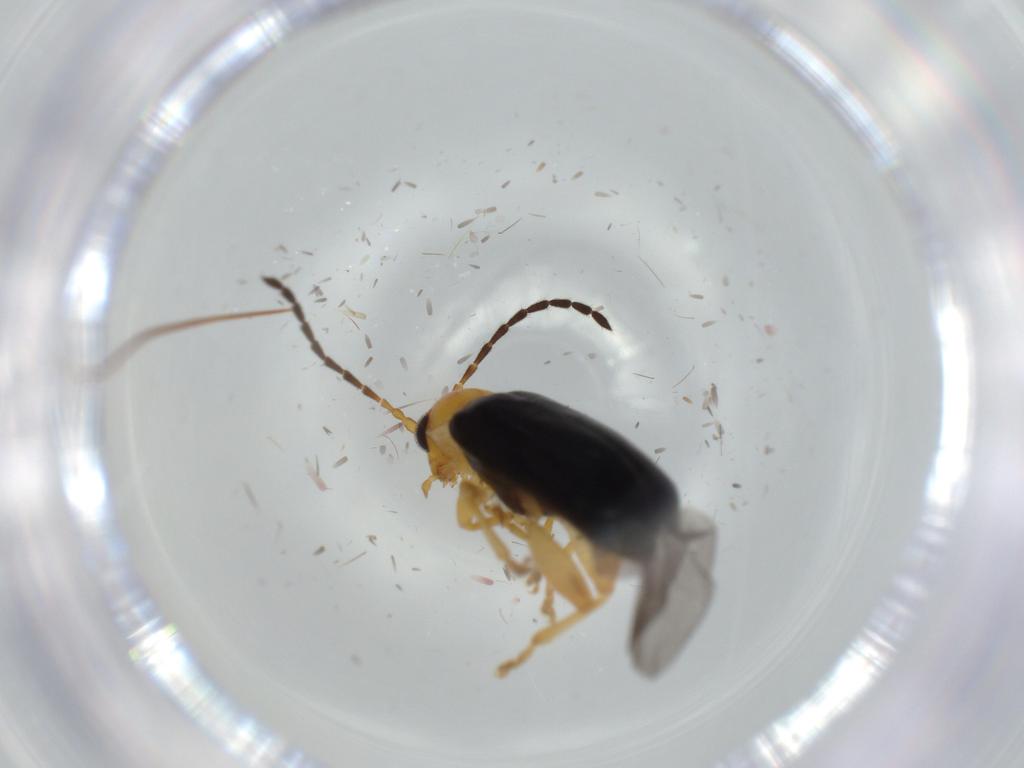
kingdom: Animalia
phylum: Arthropoda
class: Insecta
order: Coleoptera
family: Chrysomelidae
